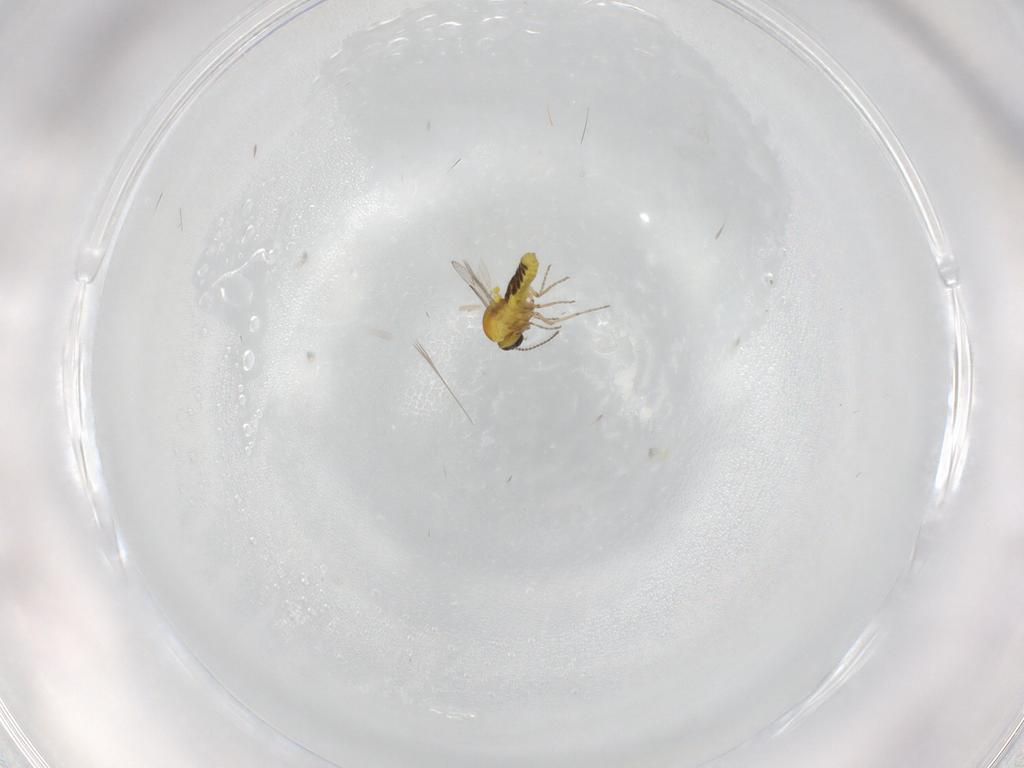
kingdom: Animalia
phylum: Arthropoda
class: Insecta
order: Diptera
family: Ceratopogonidae
